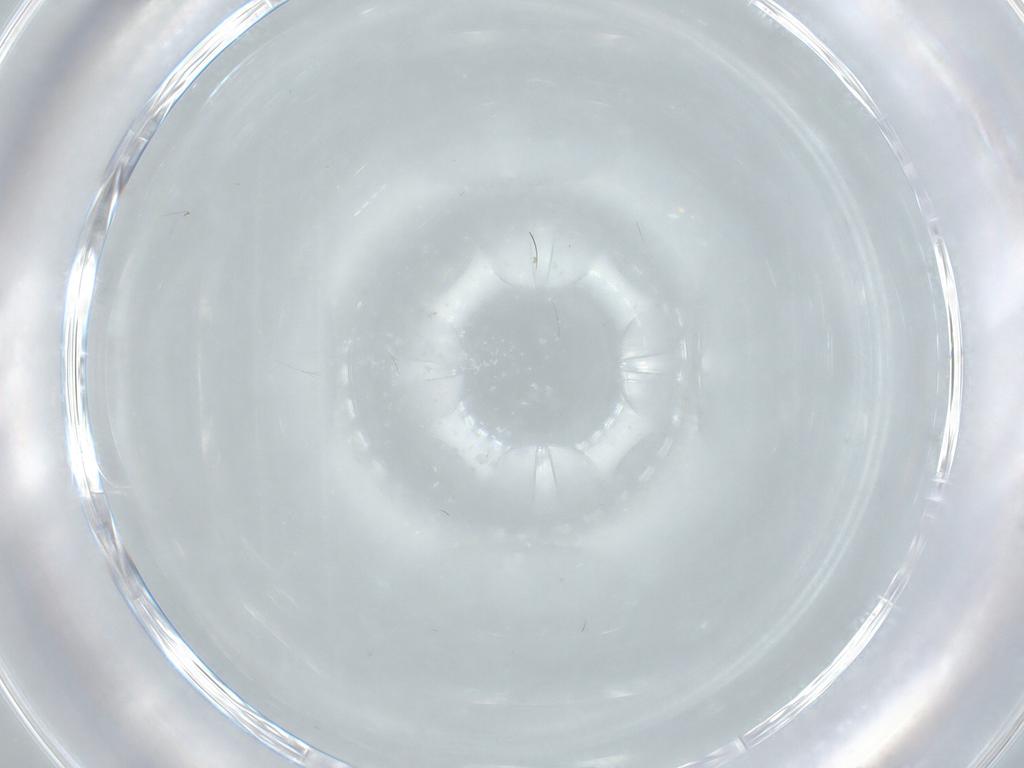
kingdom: Animalia
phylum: Arthropoda
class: Insecta
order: Diptera
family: Cecidomyiidae
